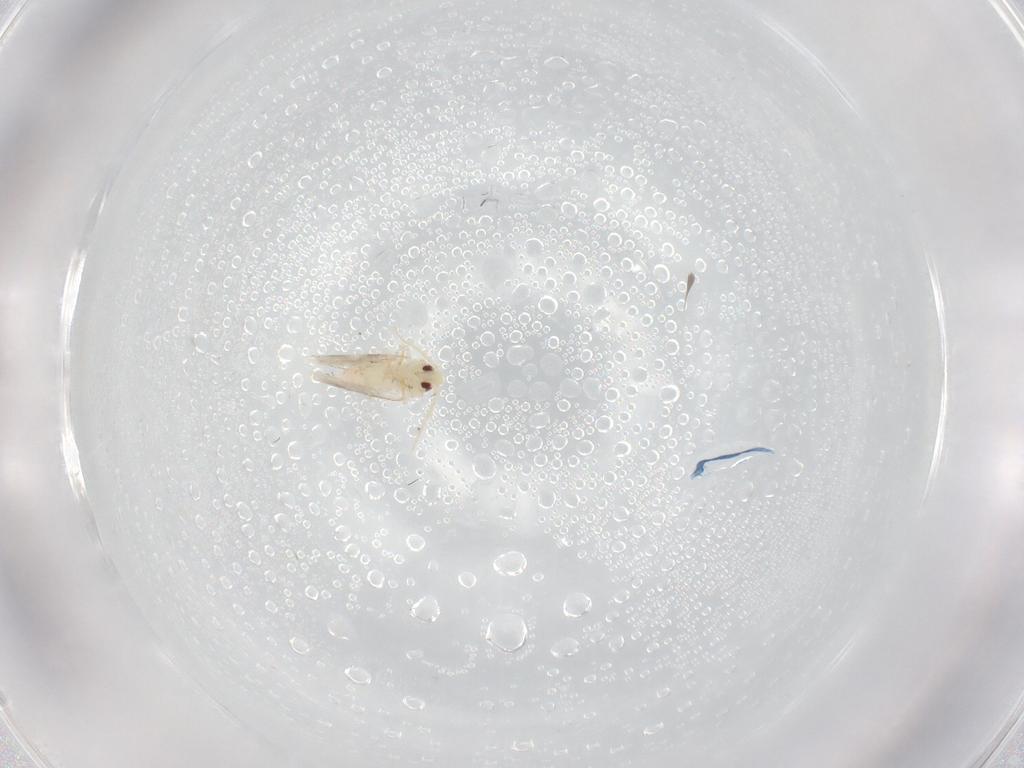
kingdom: Animalia
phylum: Arthropoda
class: Insecta
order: Hemiptera
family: Aleyrodidae
